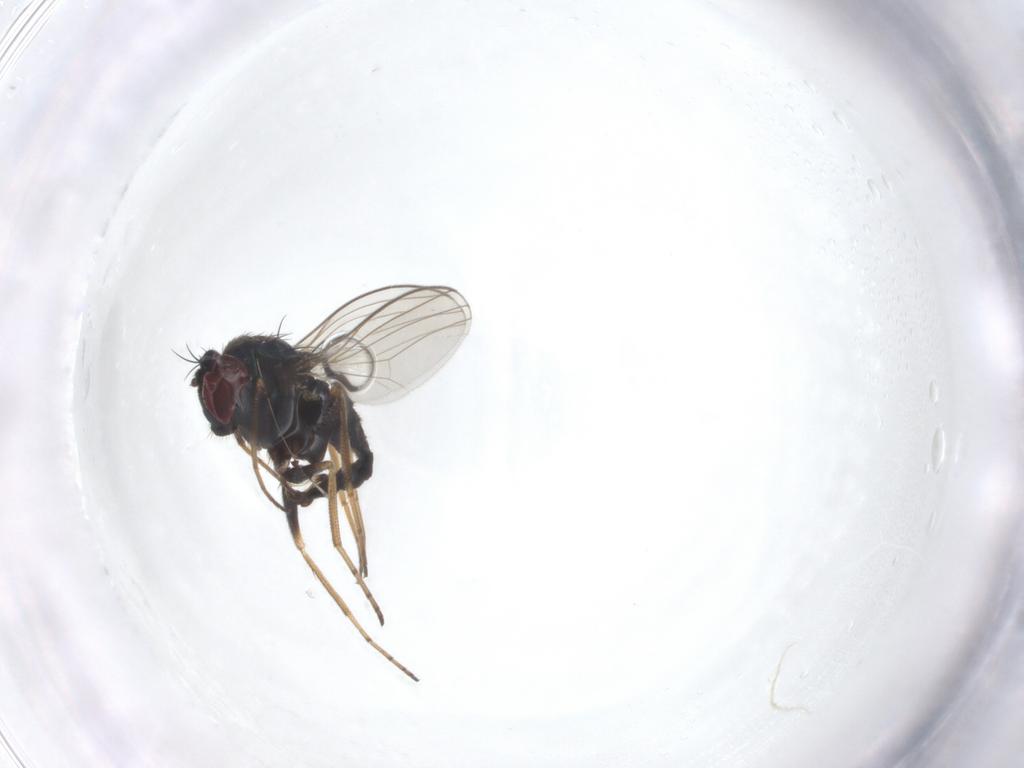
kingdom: Animalia
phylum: Arthropoda
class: Insecta
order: Diptera
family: Dolichopodidae
